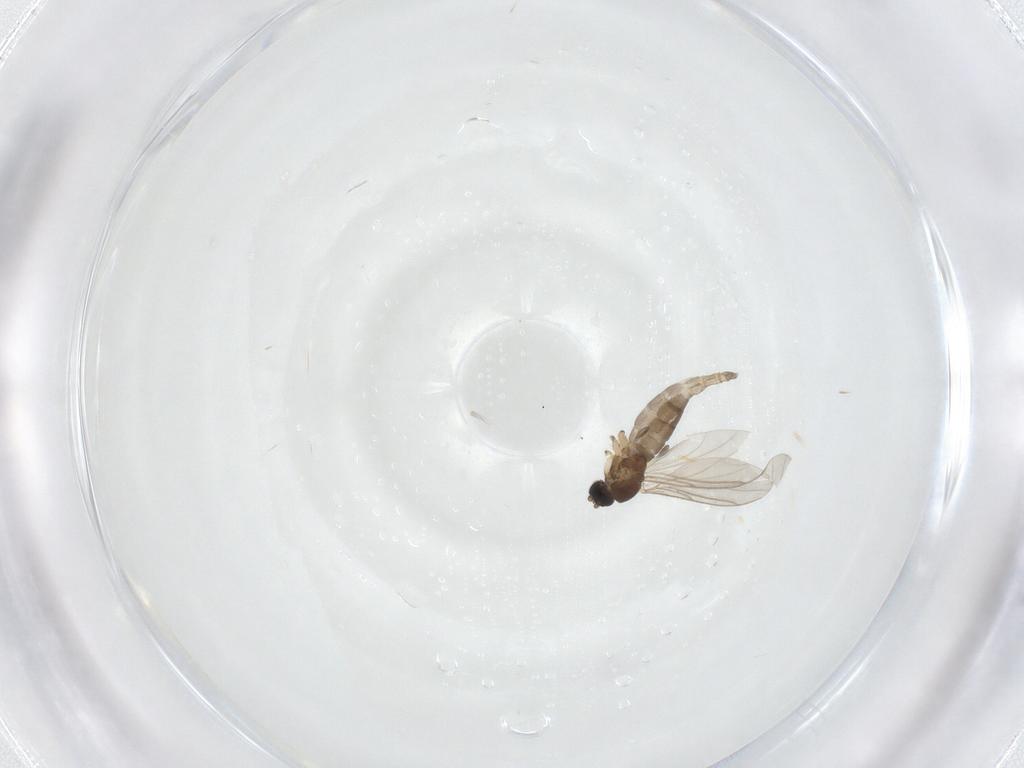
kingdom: Animalia
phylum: Arthropoda
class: Insecta
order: Diptera
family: Sciaridae
